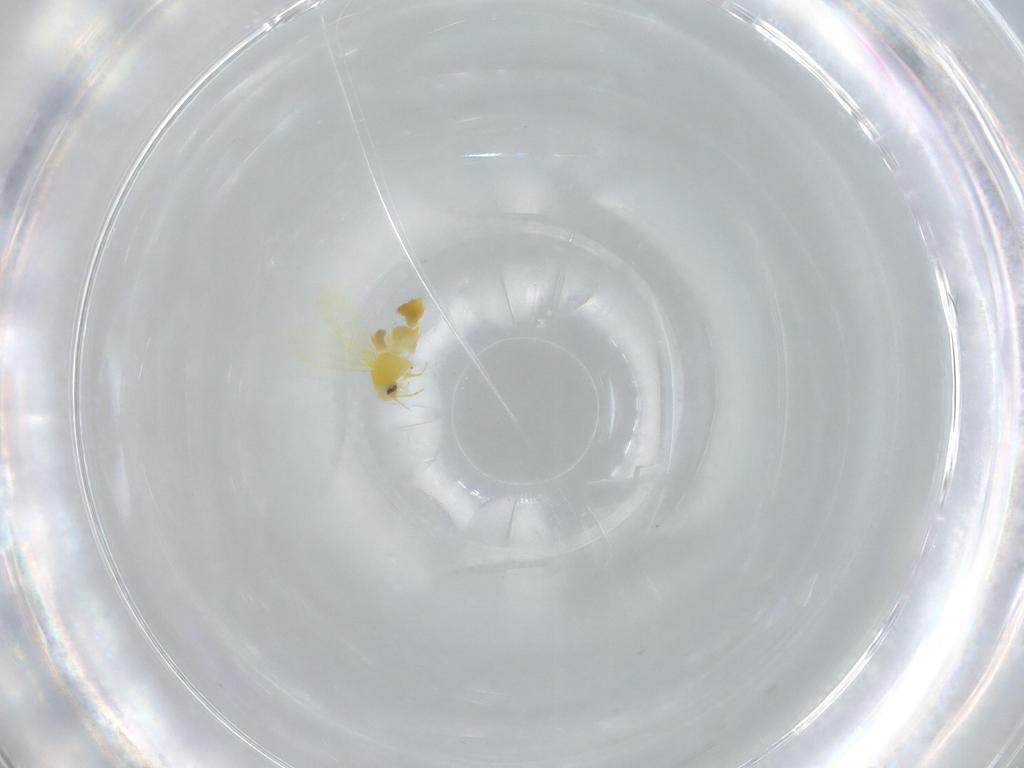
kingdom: Animalia
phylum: Arthropoda
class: Insecta
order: Hemiptera
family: Aleyrodidae
